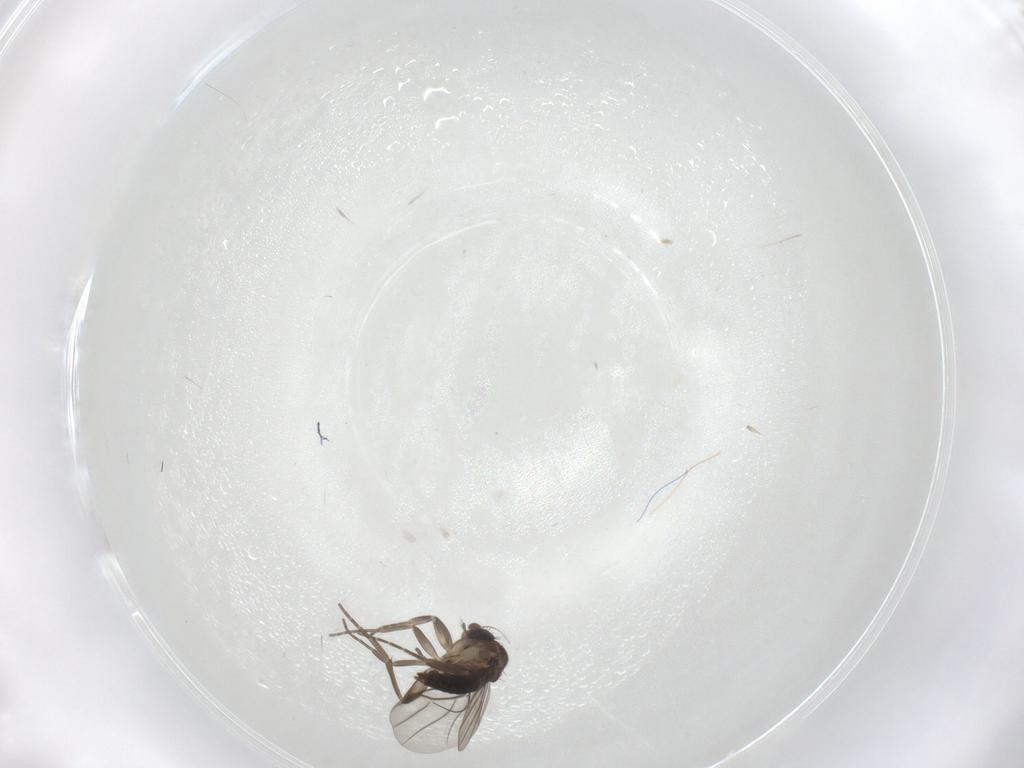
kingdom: Animalia
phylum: Arthropoda
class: Insecta
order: Diptera
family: Phoridae
